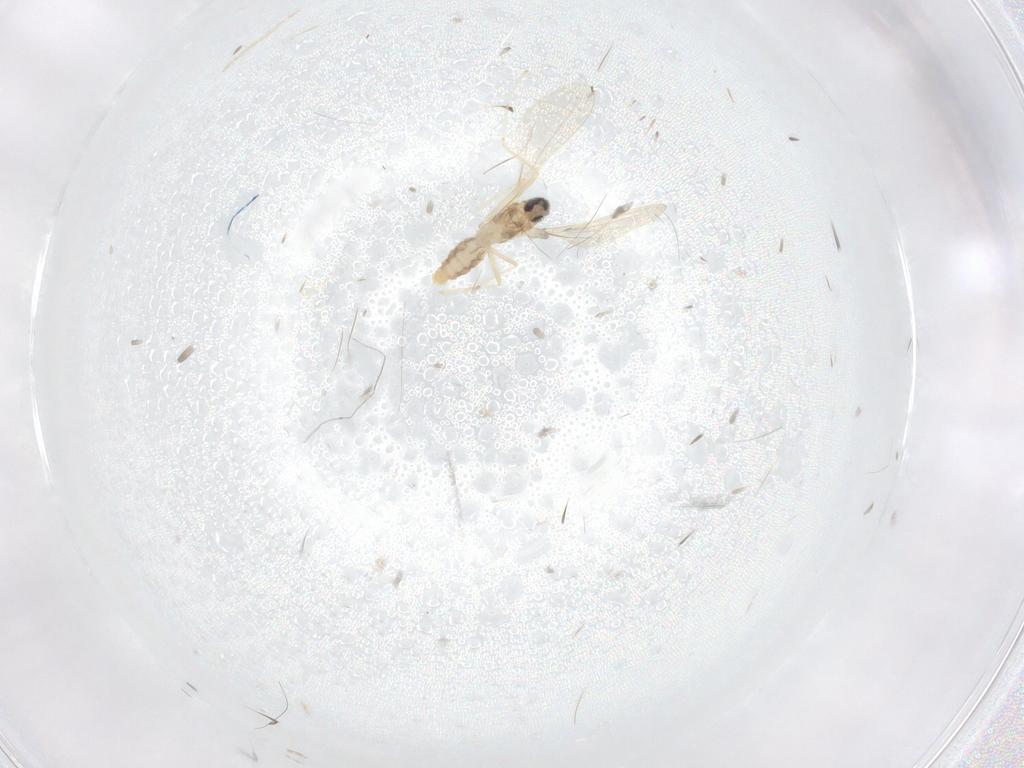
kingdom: Animalia
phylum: Arthropoda
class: Insecta
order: Diptera
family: Cecidomyiidae
